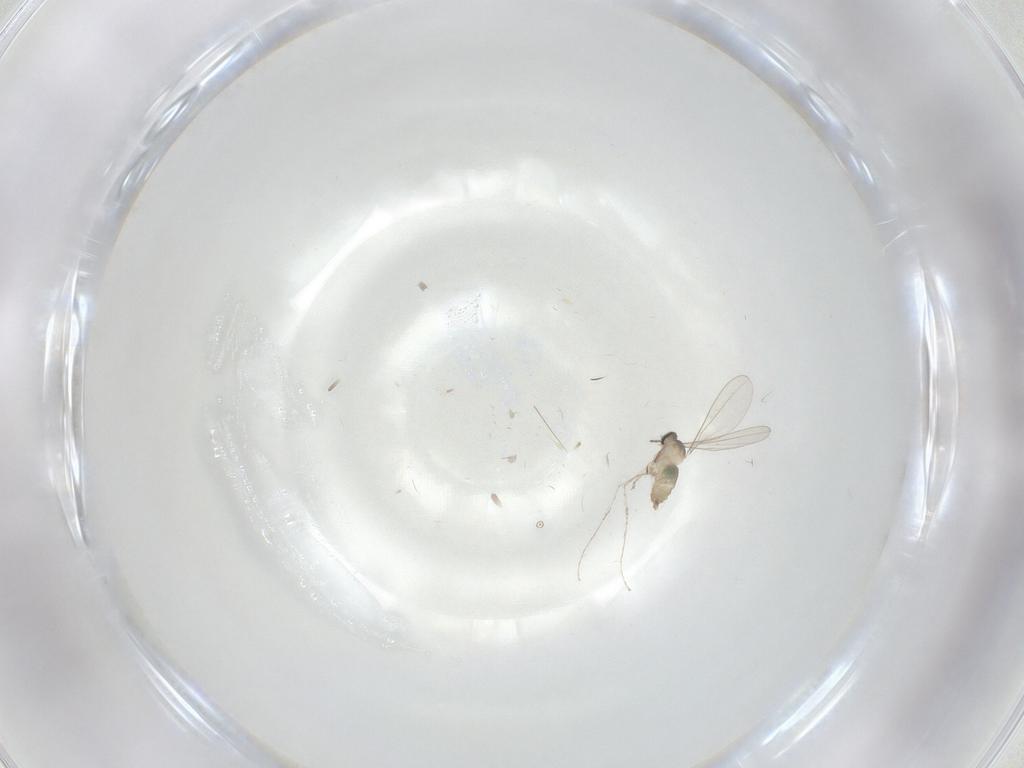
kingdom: Animalia
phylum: Arthropoda
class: Insecta
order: Diptera
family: Cecidomyiidae
